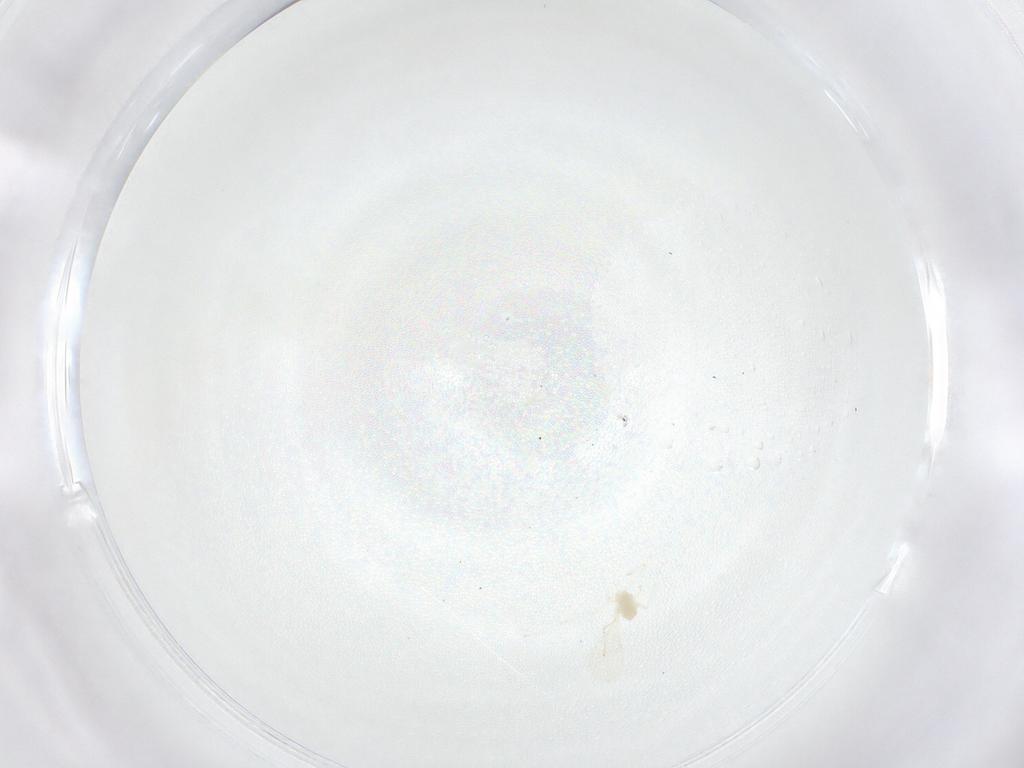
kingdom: Animalia
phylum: Arthropoda
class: Insecta
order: Diptera
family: Cecidomyiidae
